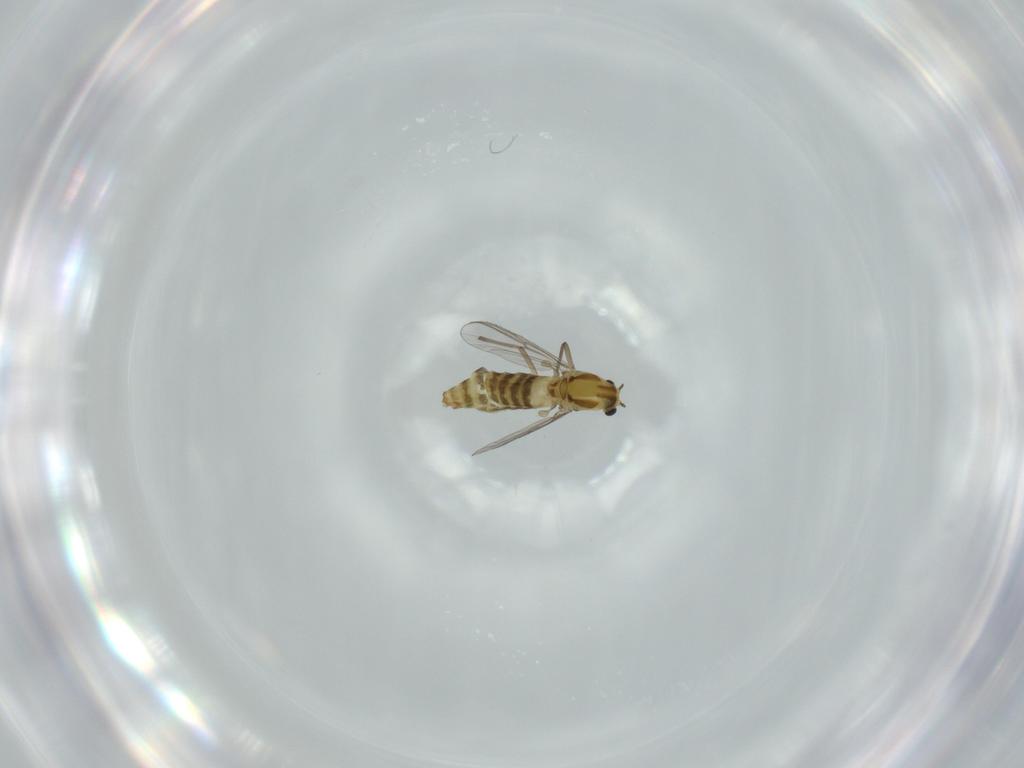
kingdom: Animalia
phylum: Arthropoda
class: Insecta
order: Diptera
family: Chironomidae
